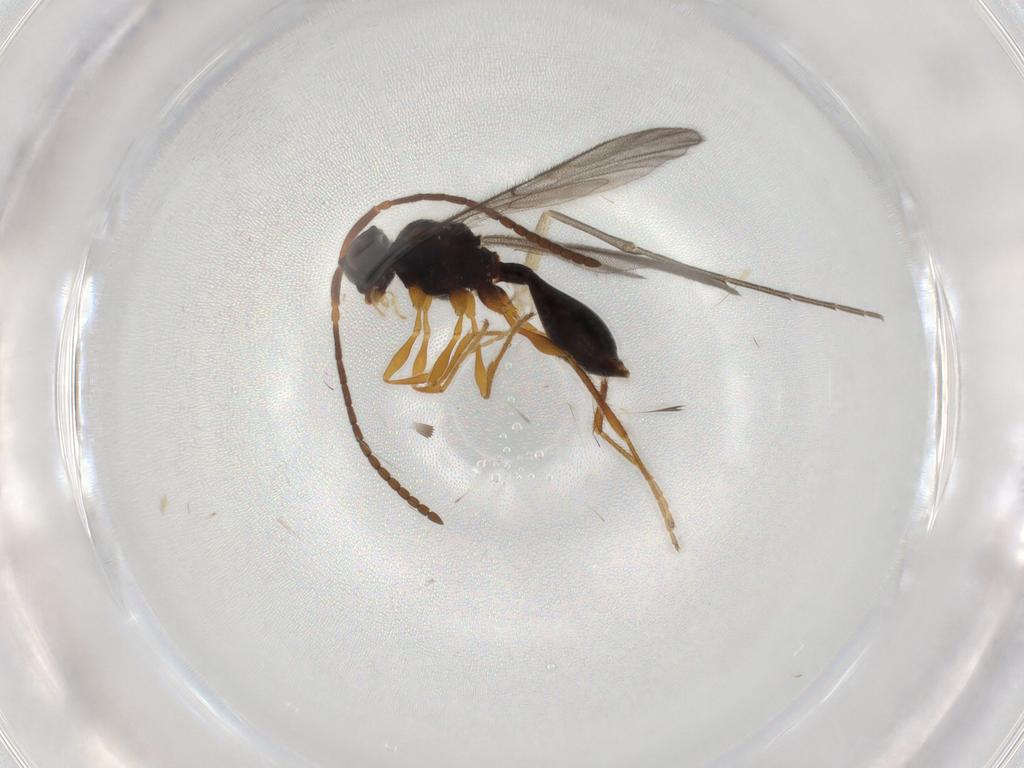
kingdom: Animalia
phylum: Arthropoda
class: Insecta
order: Hymenoptera
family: Diapriidae
